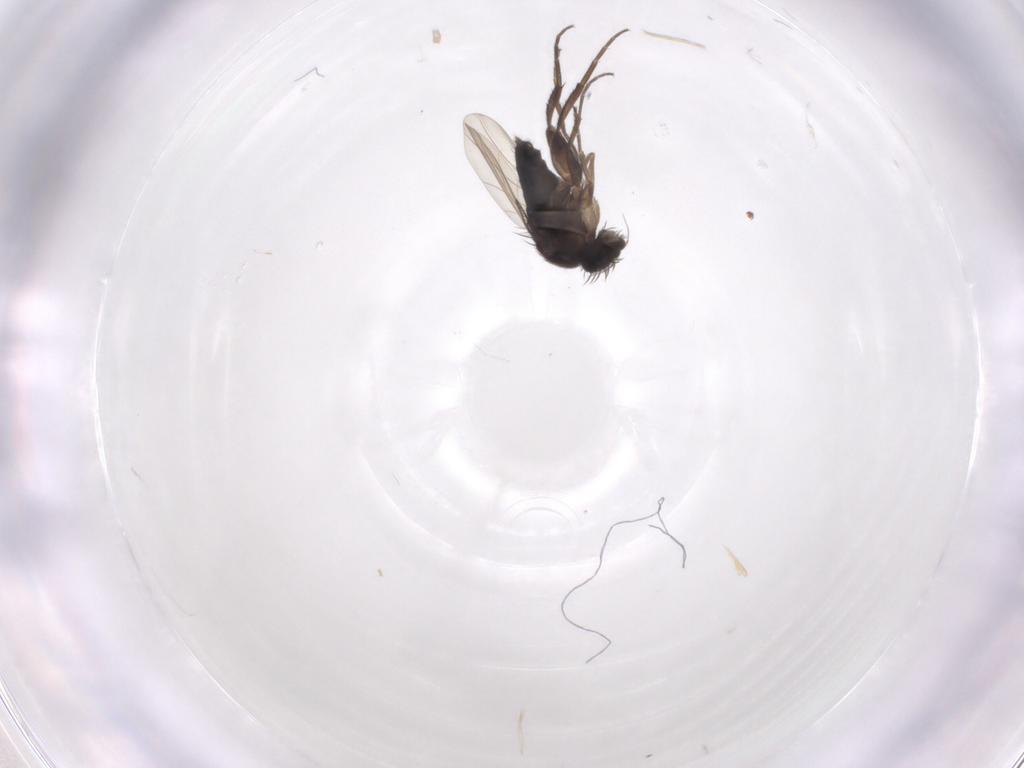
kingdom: Animalia
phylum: Arthropoda
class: Insecta
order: Diptera
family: Phoridae
